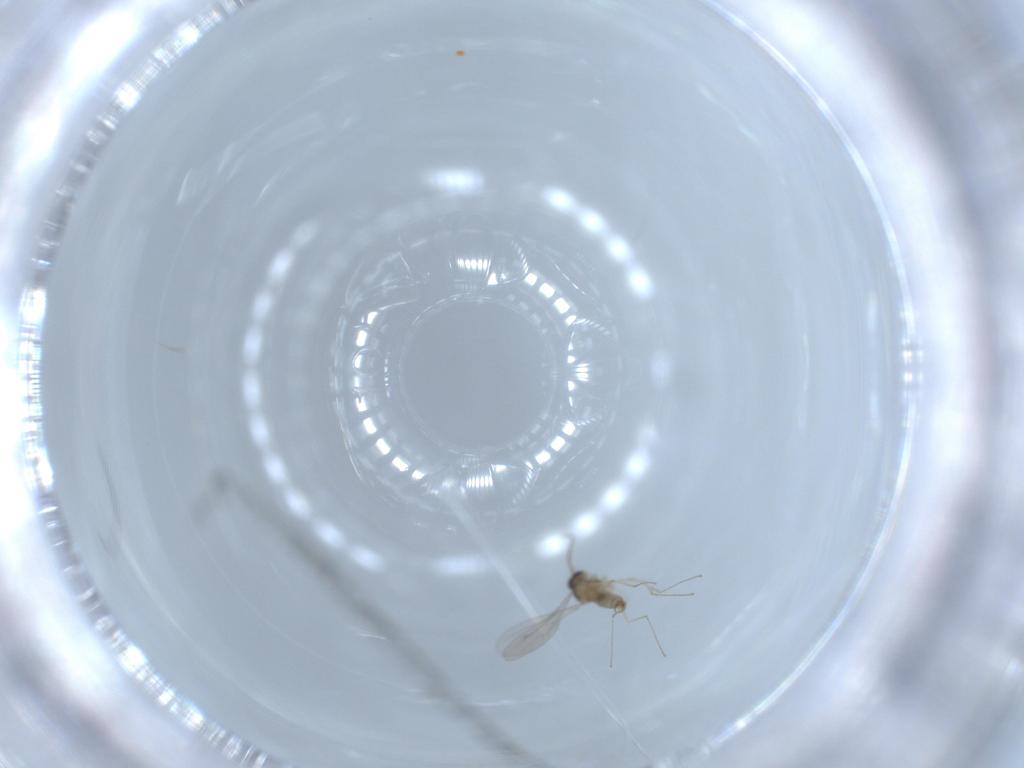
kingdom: Animalia
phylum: Arthropoda
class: Insecta
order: Diptera
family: Cecidomyiidae
